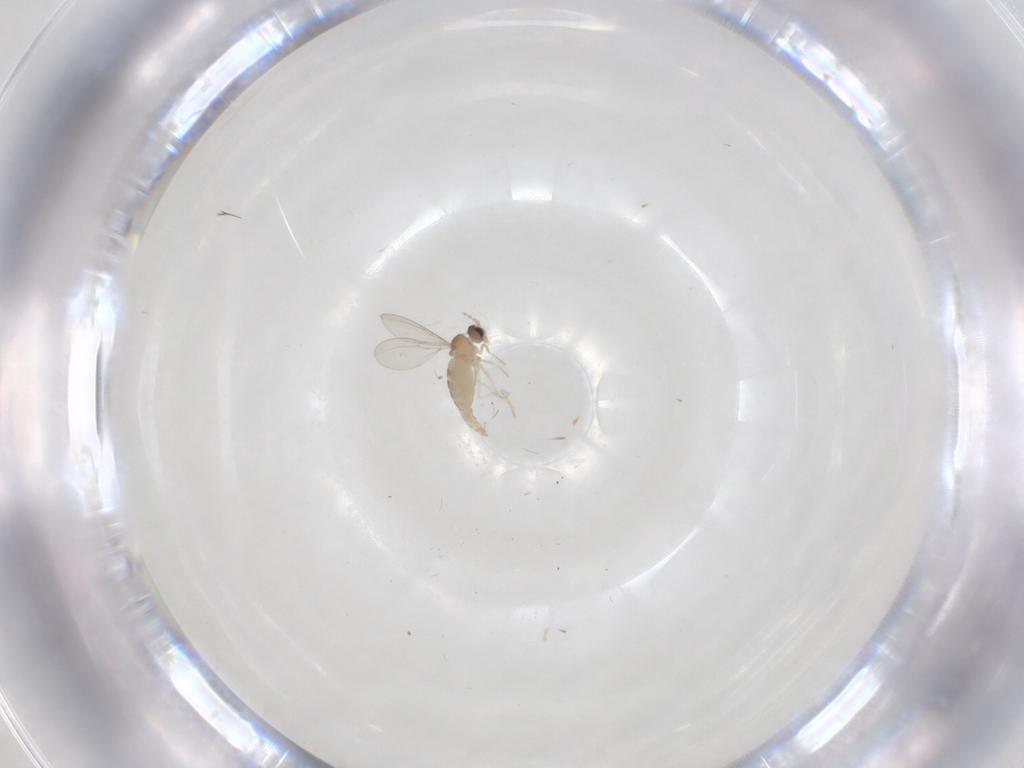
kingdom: Animalia
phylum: Arthropoda
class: Insecta
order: Diptera
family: Cecidomyiidae
